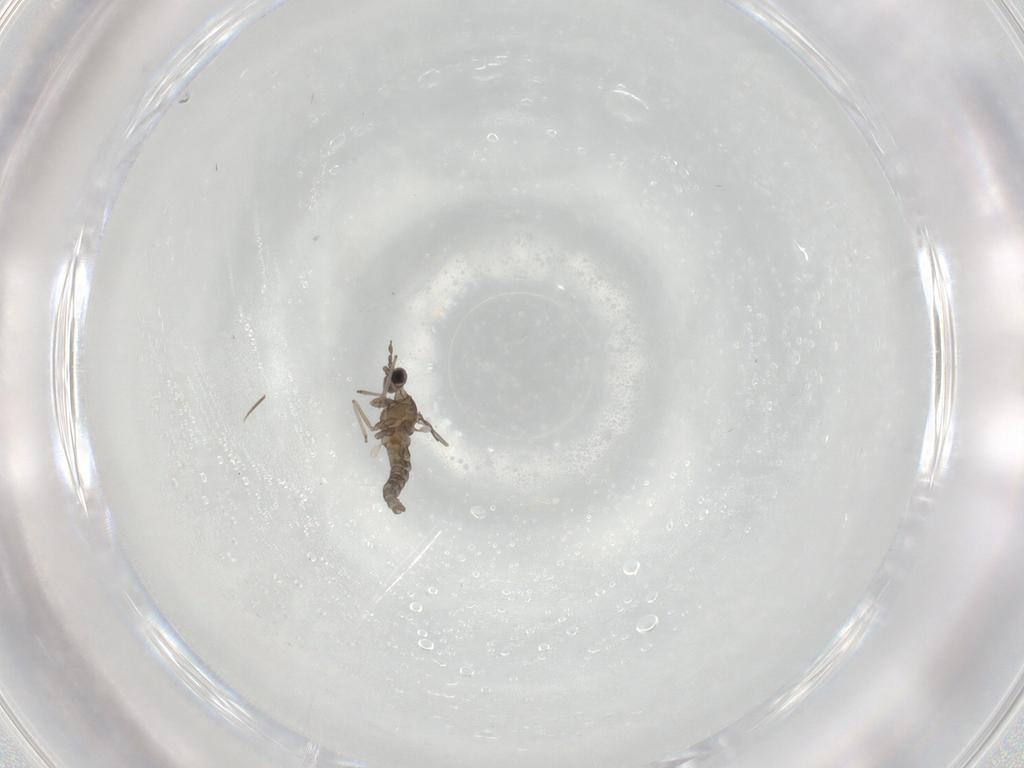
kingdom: Animalia
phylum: Arthropoda
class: Insecta
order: Diptera
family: Cecidomyiidae
